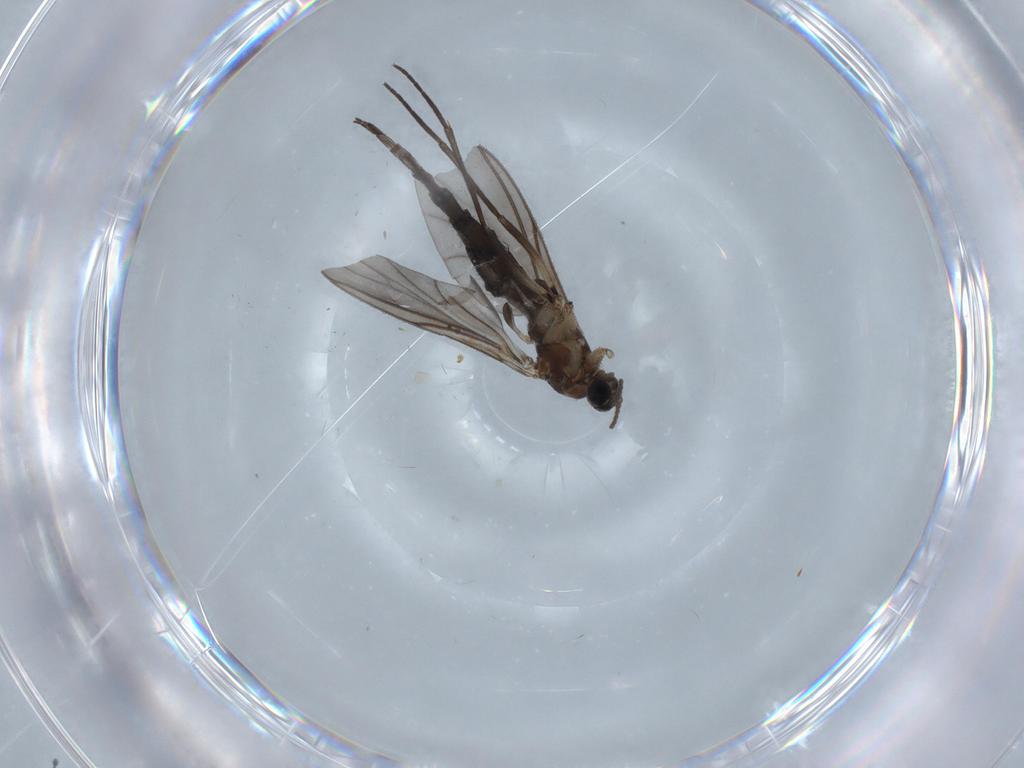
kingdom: Animalia
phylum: Arthropoda
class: Insecta
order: Diptera
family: Sciaridae
